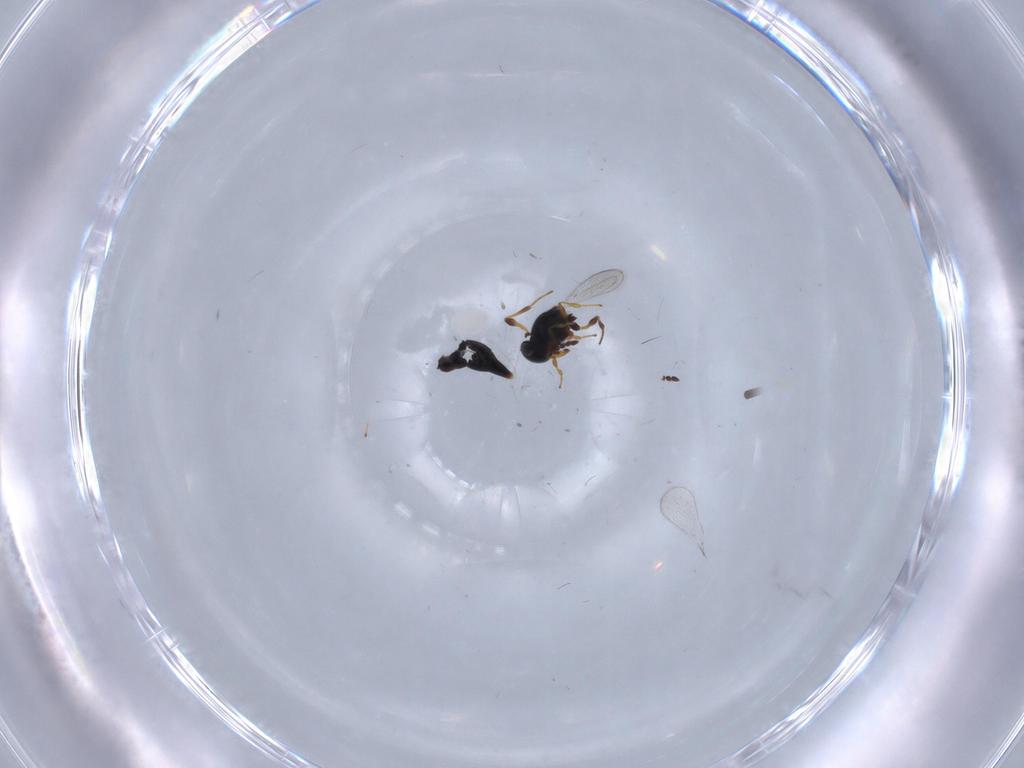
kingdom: Animalia
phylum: Arthropoda
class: Insecta
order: Hymenoptera
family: Platygastridae
